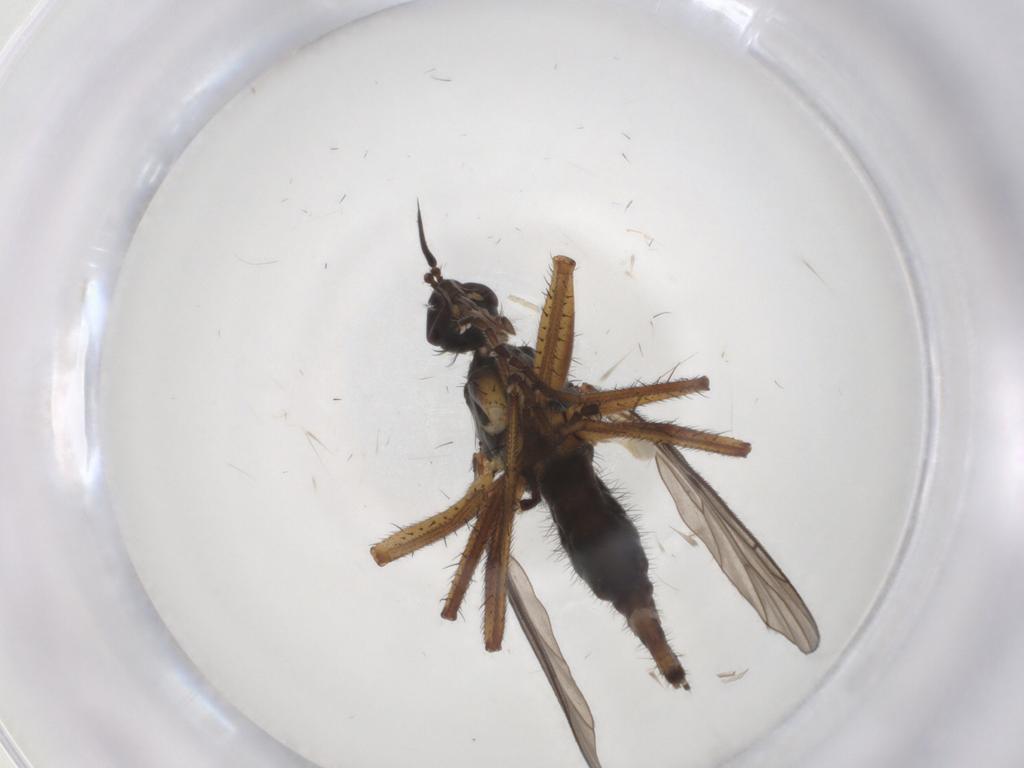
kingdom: Animalia
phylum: Arthropoda
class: Insecta
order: Diptera
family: Empididae
